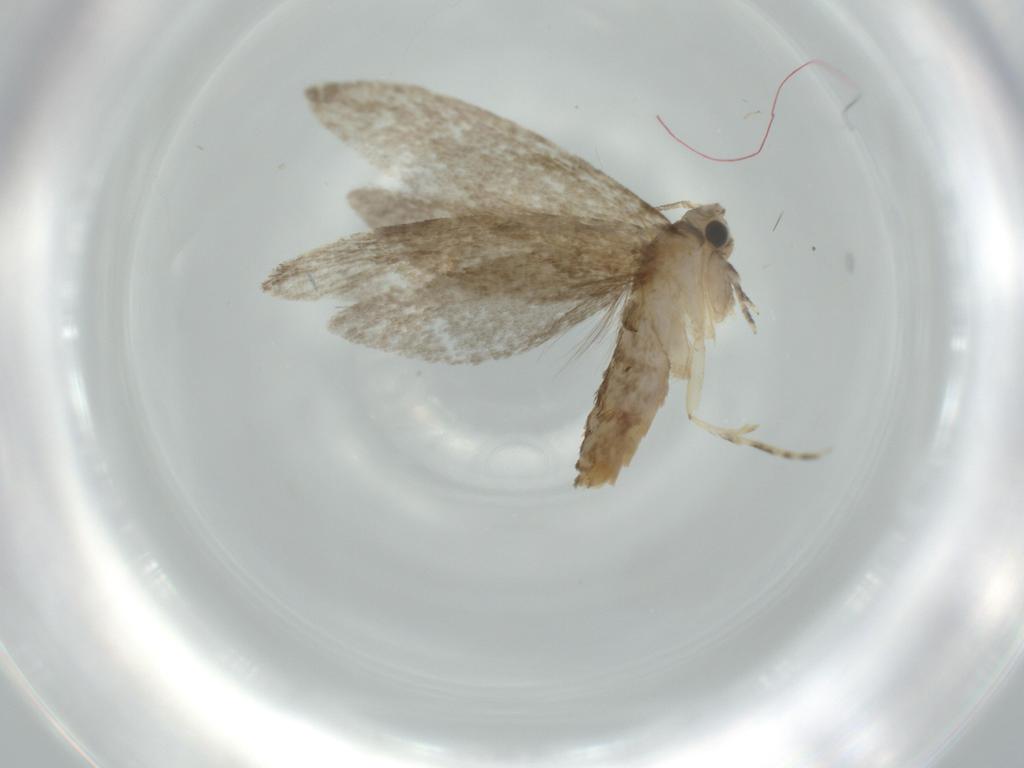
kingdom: Animalia
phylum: Arthropoda
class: Insecta
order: Lepidoptera
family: Tineidae
